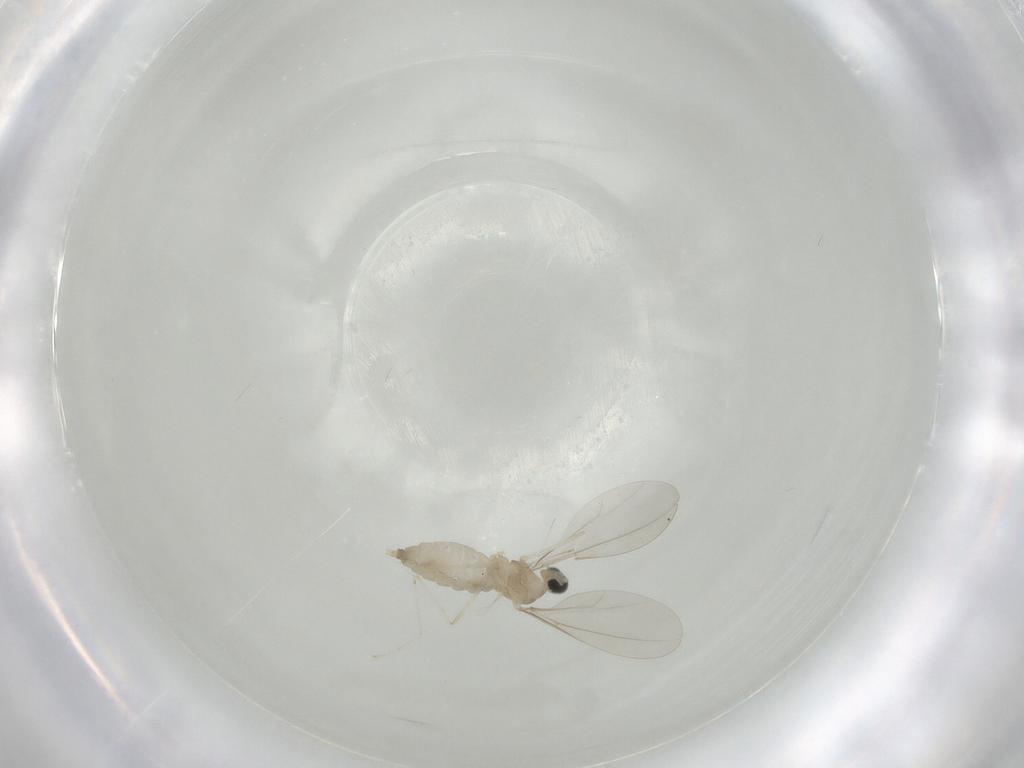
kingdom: Animalia
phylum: Arthropoda
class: Insecta
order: Diptera
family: Cecidomyiidae
